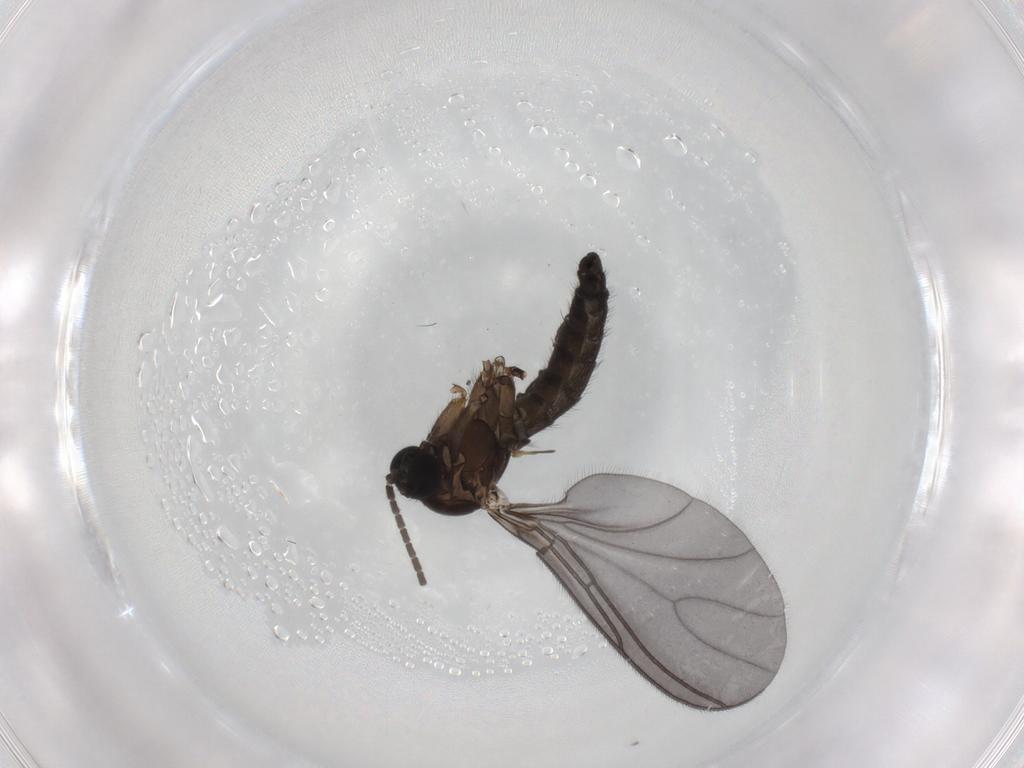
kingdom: Animalia
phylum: Arthropoda
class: Insecta
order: Diptera
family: Sciaridae
